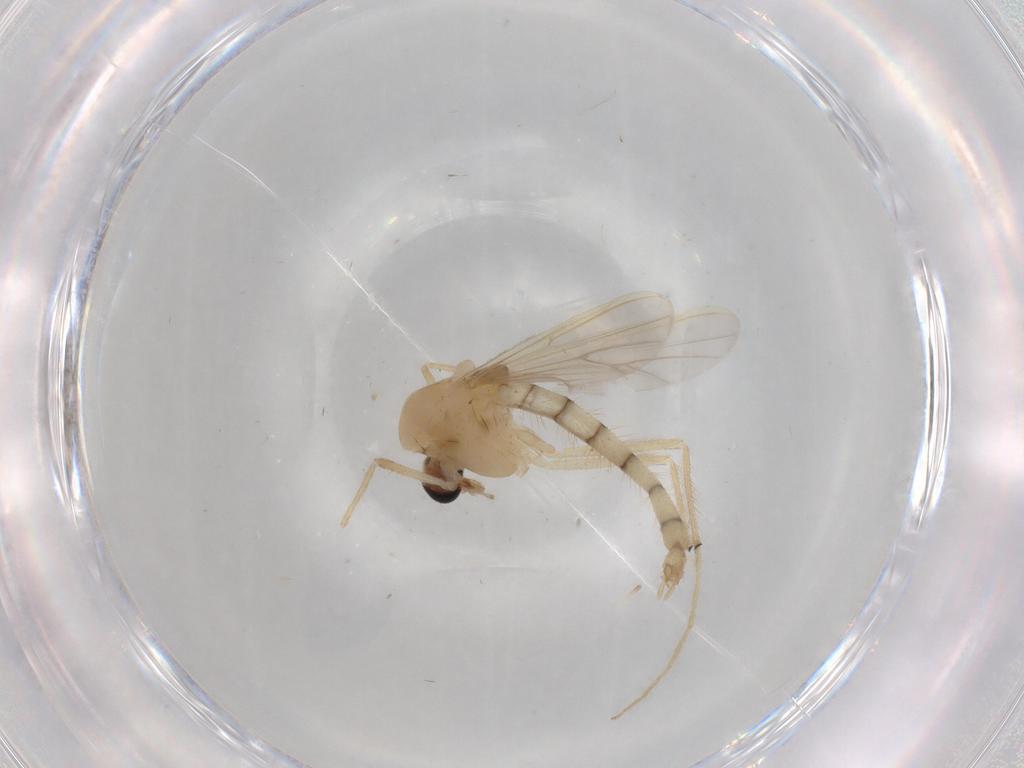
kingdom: Animalia
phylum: Arthropoda
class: Insecta
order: Diptera
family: Chironomidae
